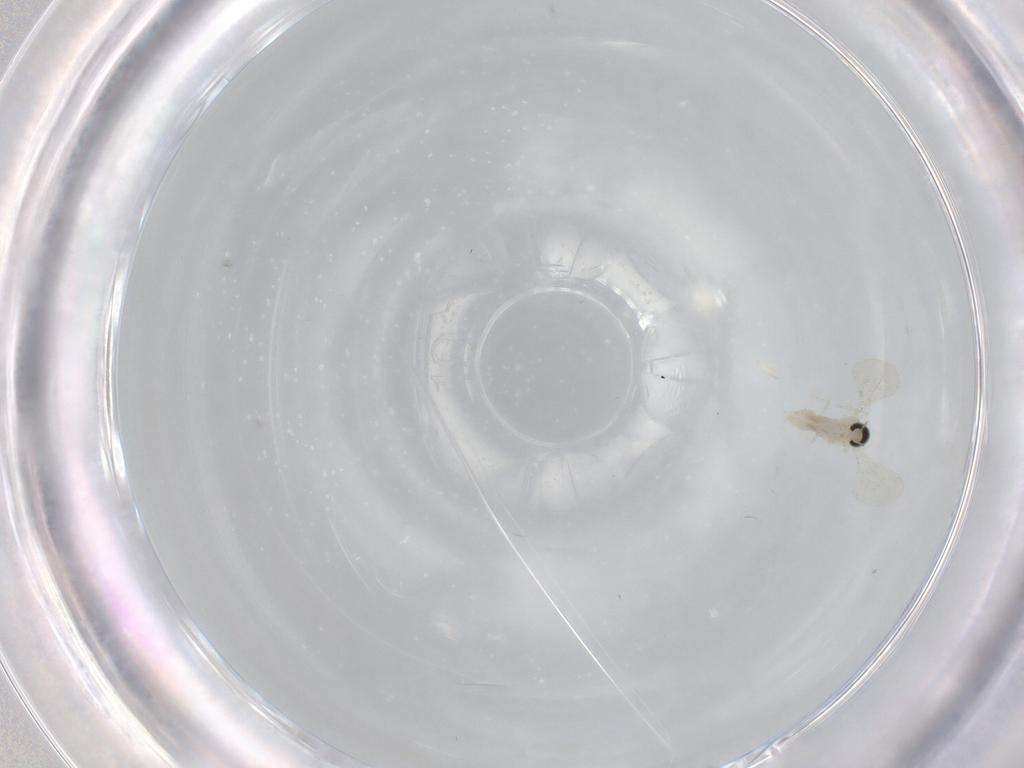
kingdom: Animalia
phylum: Arthropoda
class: Insecta
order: Diptera
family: Cecidomyiidae
